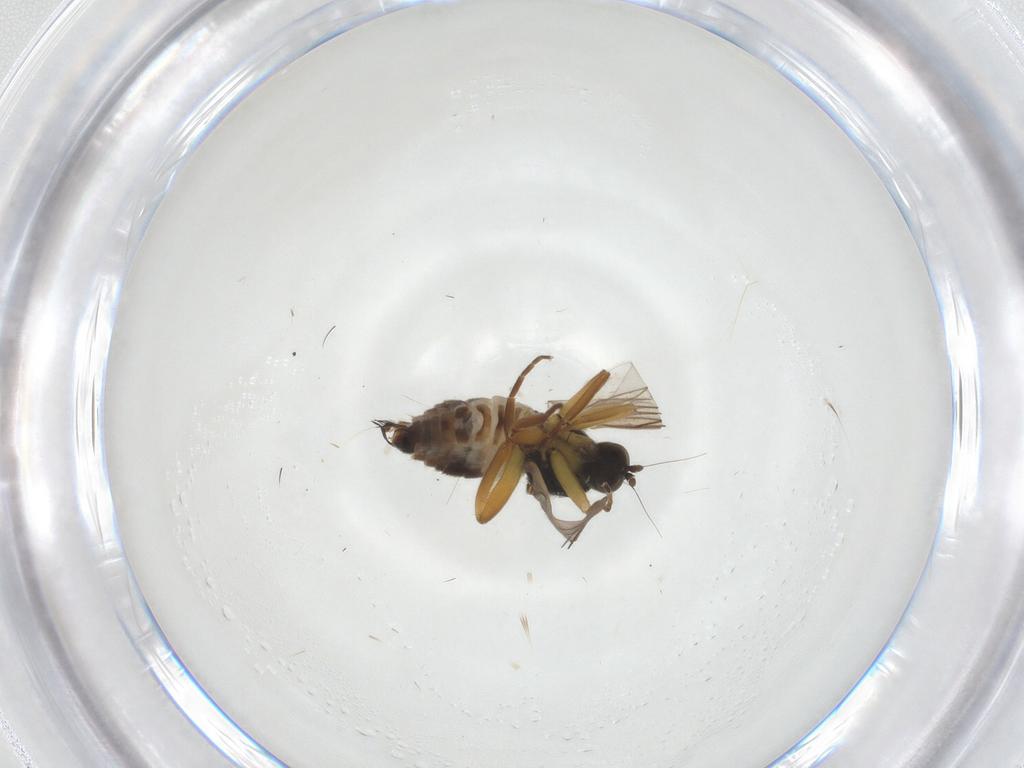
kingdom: Animalia
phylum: Arthropoda
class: Insecta
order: Diptera
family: Hybotidae
